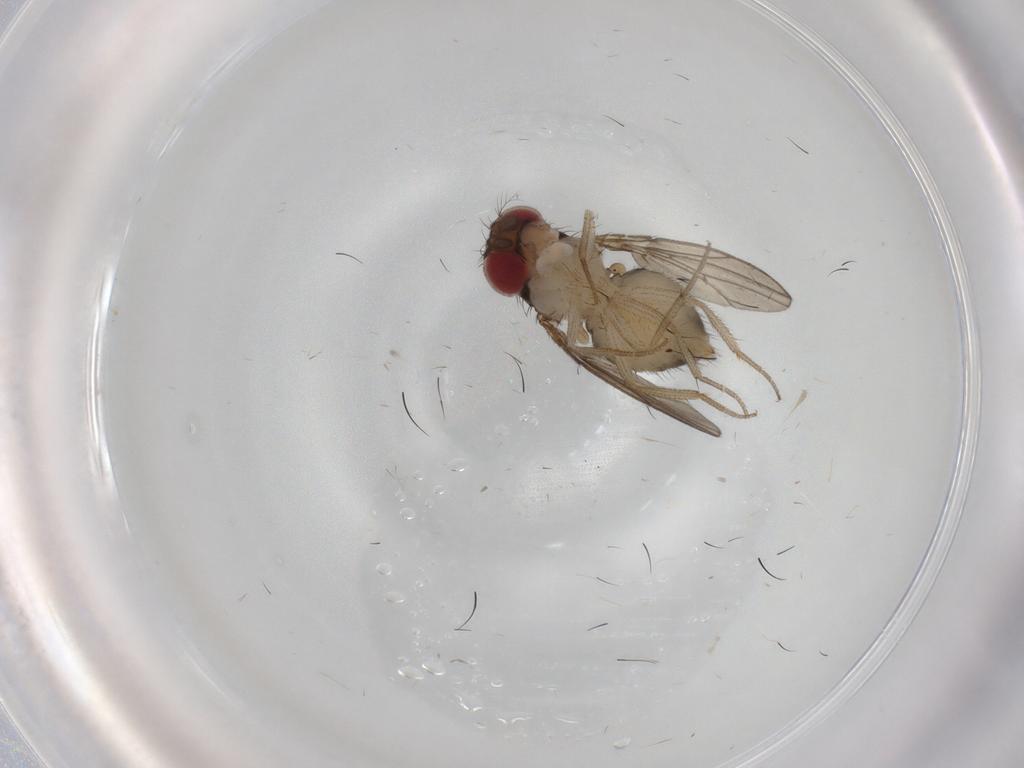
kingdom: Animalia
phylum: Arthropoda
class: Insecta
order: Diptera
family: Drosophilidae
